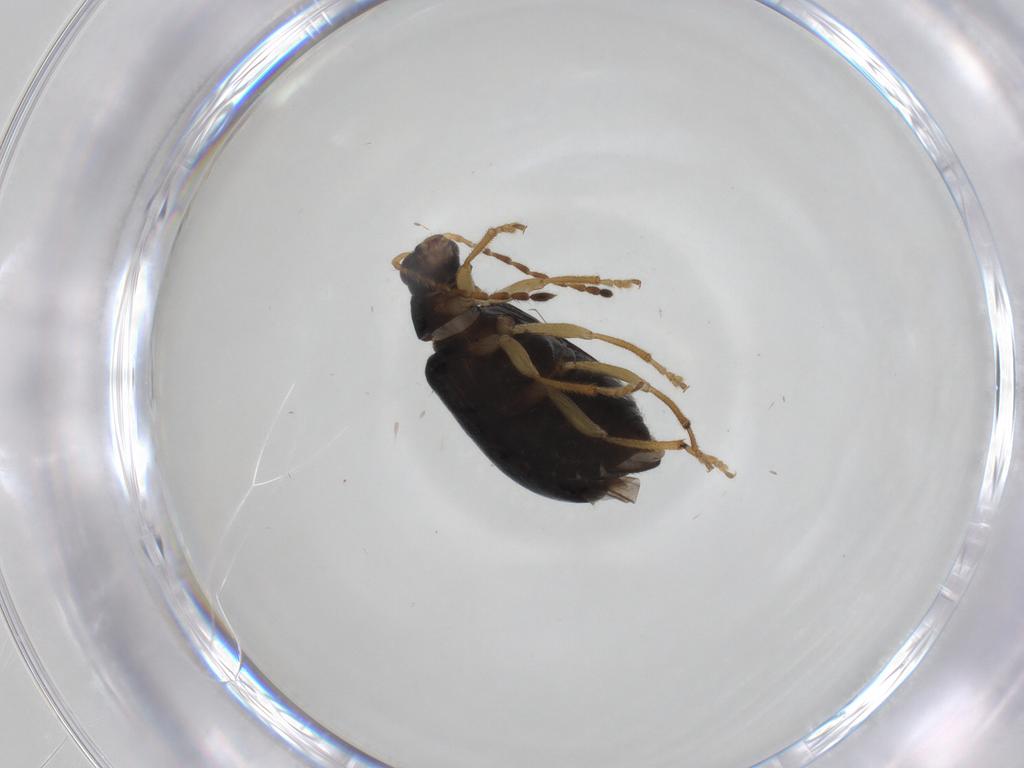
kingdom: Animalia
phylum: Arthropoda
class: Insecta
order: Coleoptera
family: Chrysomelidae
